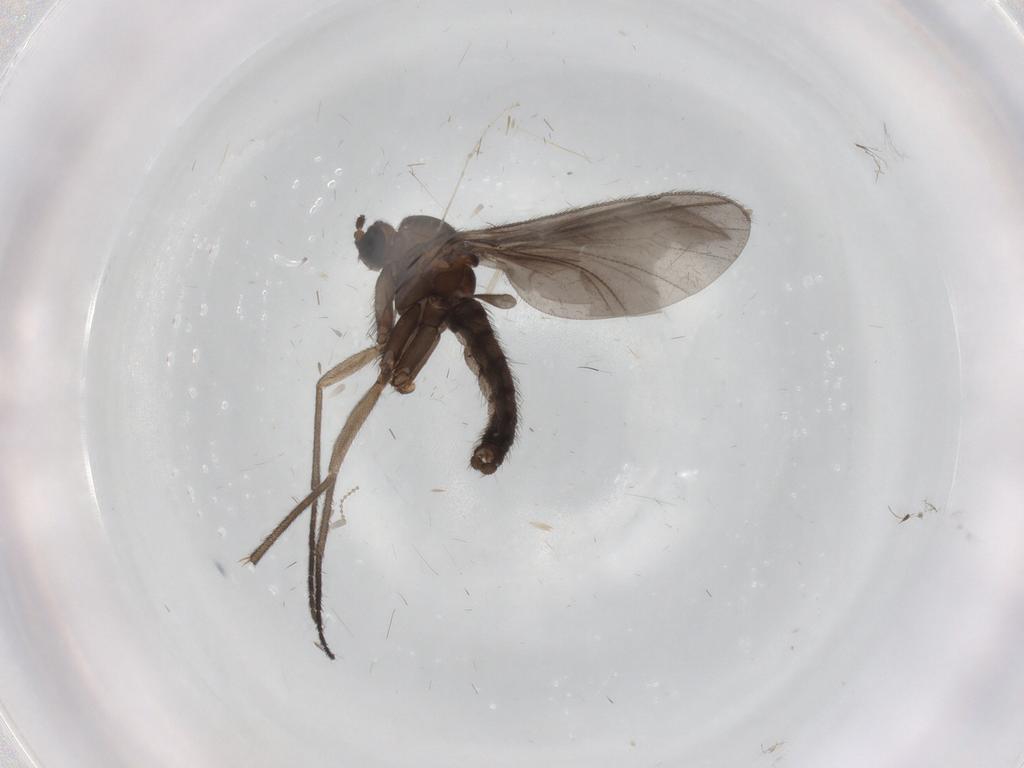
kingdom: Animalia
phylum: Arthropoda
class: Insecta
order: Diptera
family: Sciaridae
